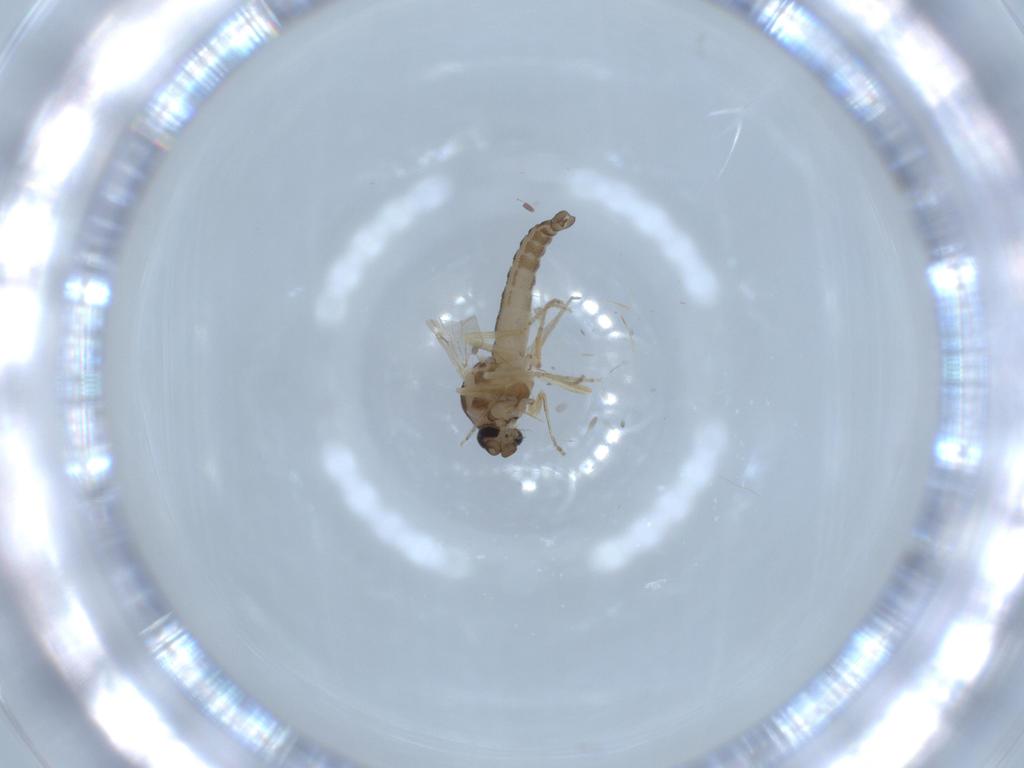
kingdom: Animalia
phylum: Arthropoda
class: Insecta
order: Diptera
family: Ceratopogonidae
